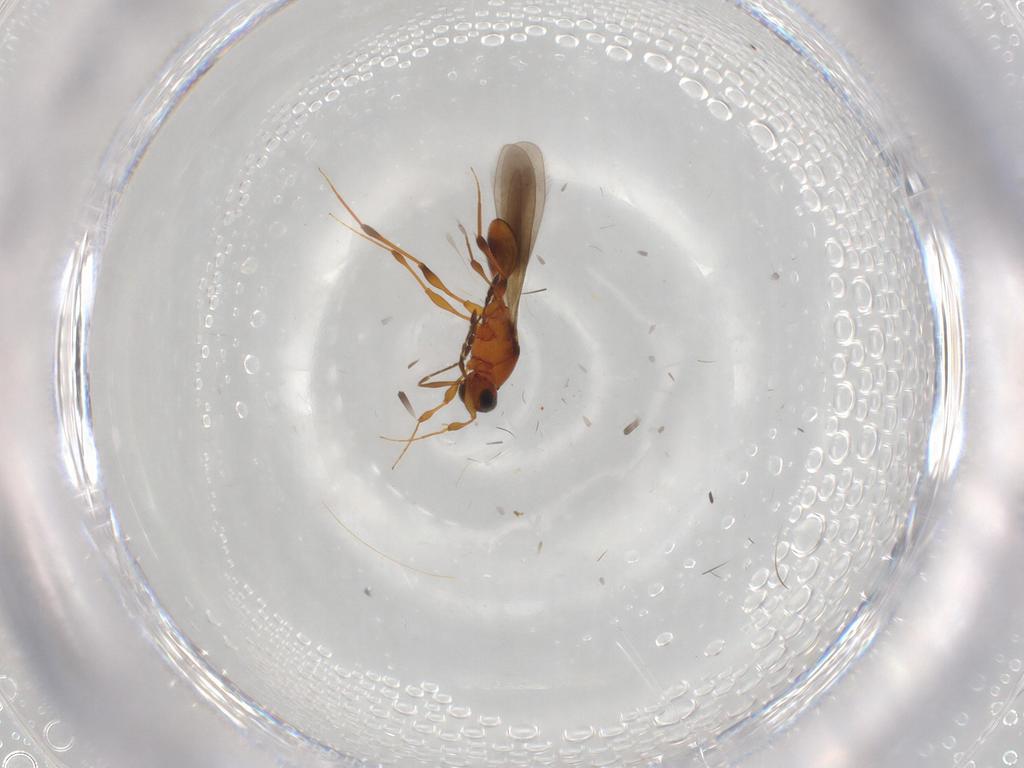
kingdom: Animalia
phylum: Arthropoda
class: Insecta
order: Hymenoptera
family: Platygastridae
